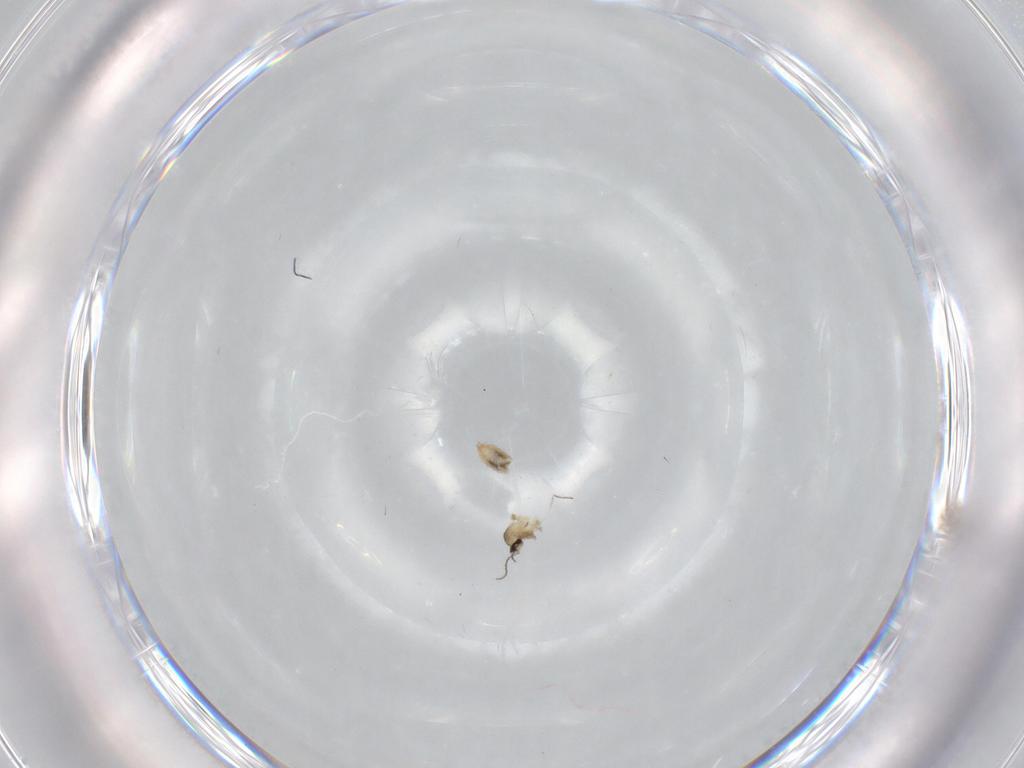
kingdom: Animalia
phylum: Arthropoda
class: Insecta
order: Diptera
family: Cecidomyiidae
